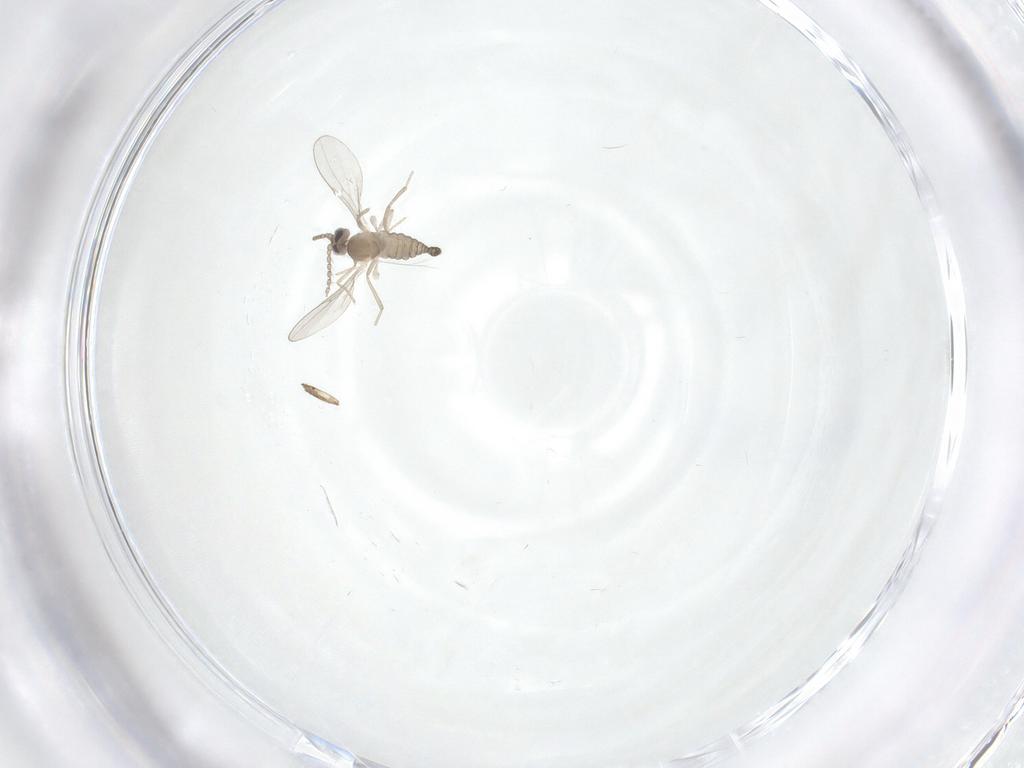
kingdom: Animalia
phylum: Arthropoda
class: Insecta
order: Diptera
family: Cecidomyiidae
